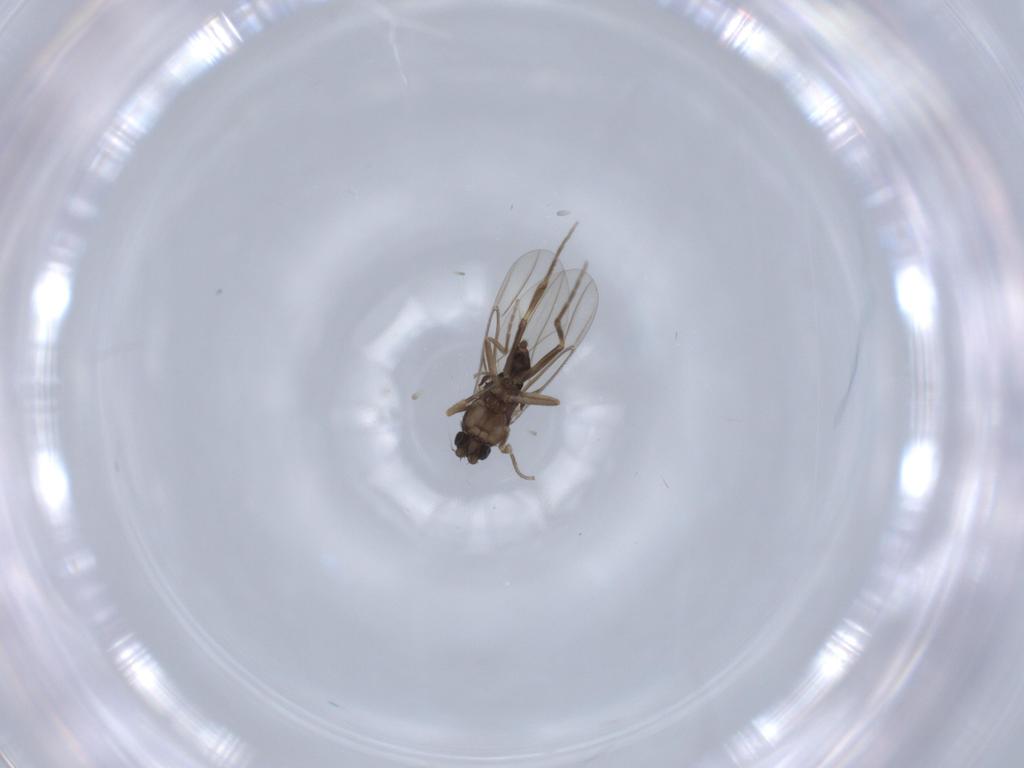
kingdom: Animalia
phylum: Arthropoda
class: Insecta
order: Diptera
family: Phoridae
